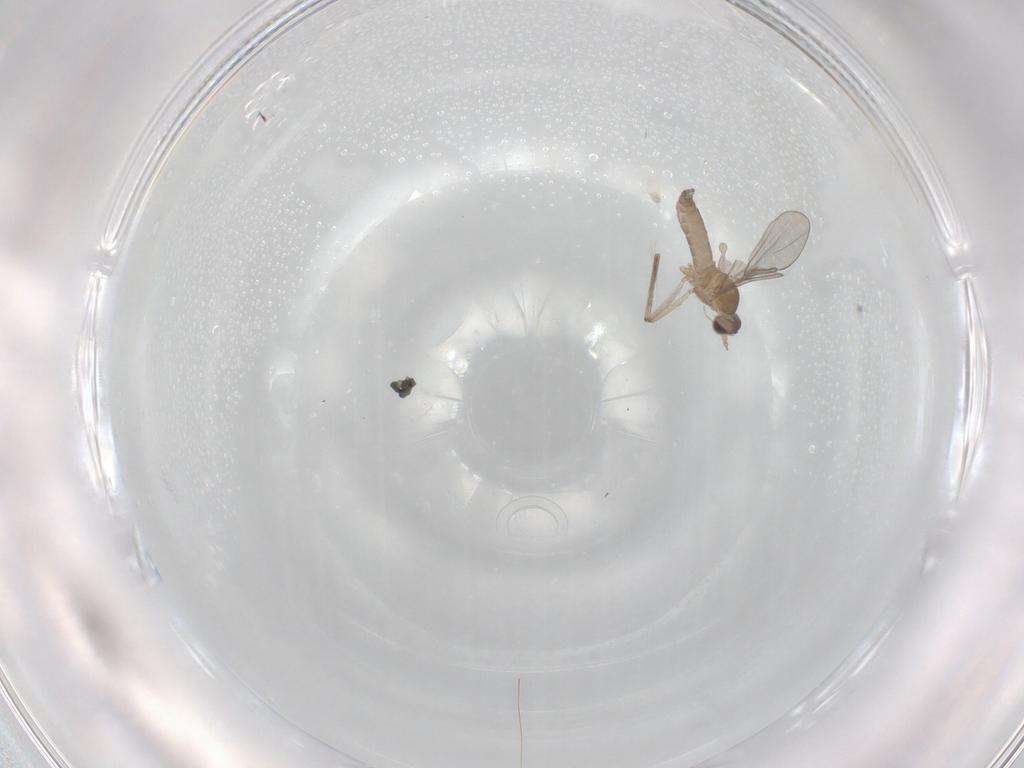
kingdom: Animalia
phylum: Arthropoda
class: Insecta
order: Diptera
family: Cecidomyiidae
